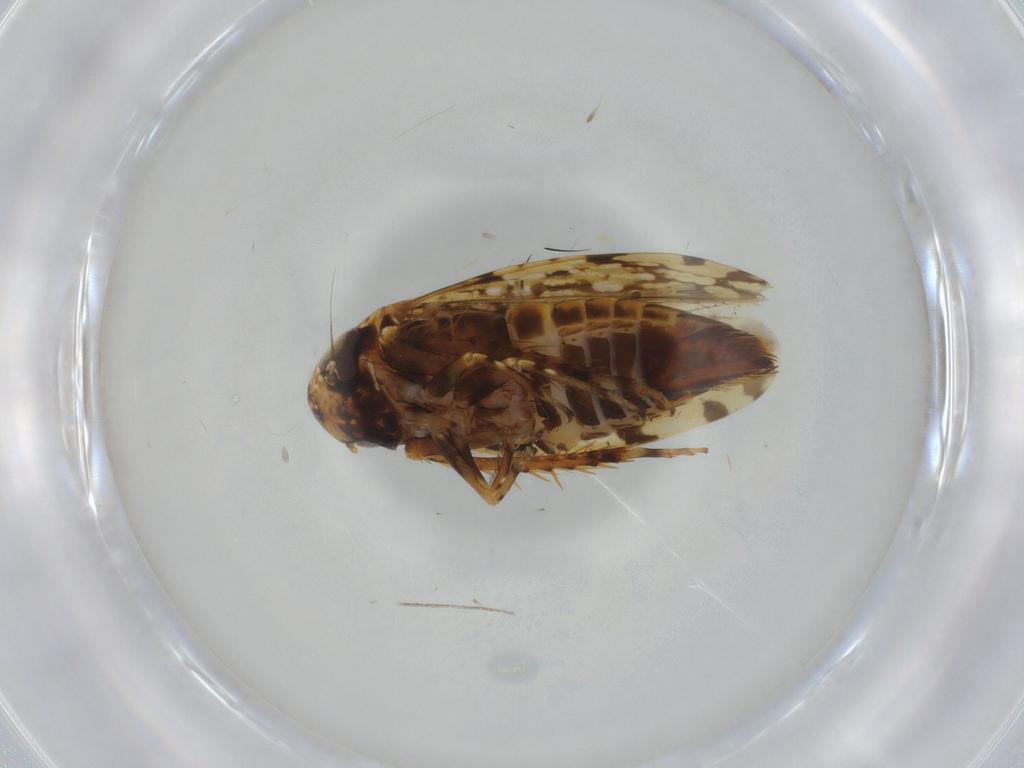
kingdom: Animalia
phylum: Arthropoda
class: Insecta
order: Hemiptera
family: Cicadellidae
